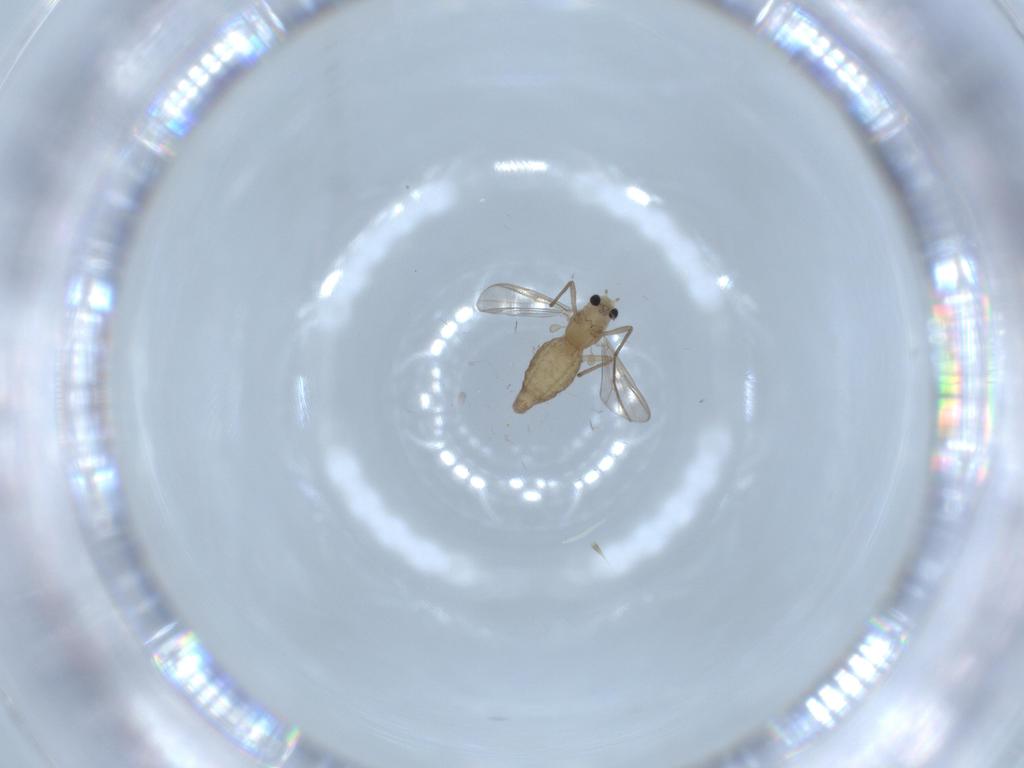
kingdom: Animalia
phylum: Arthropoda
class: Insecta
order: Diptera
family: Chironomidae
